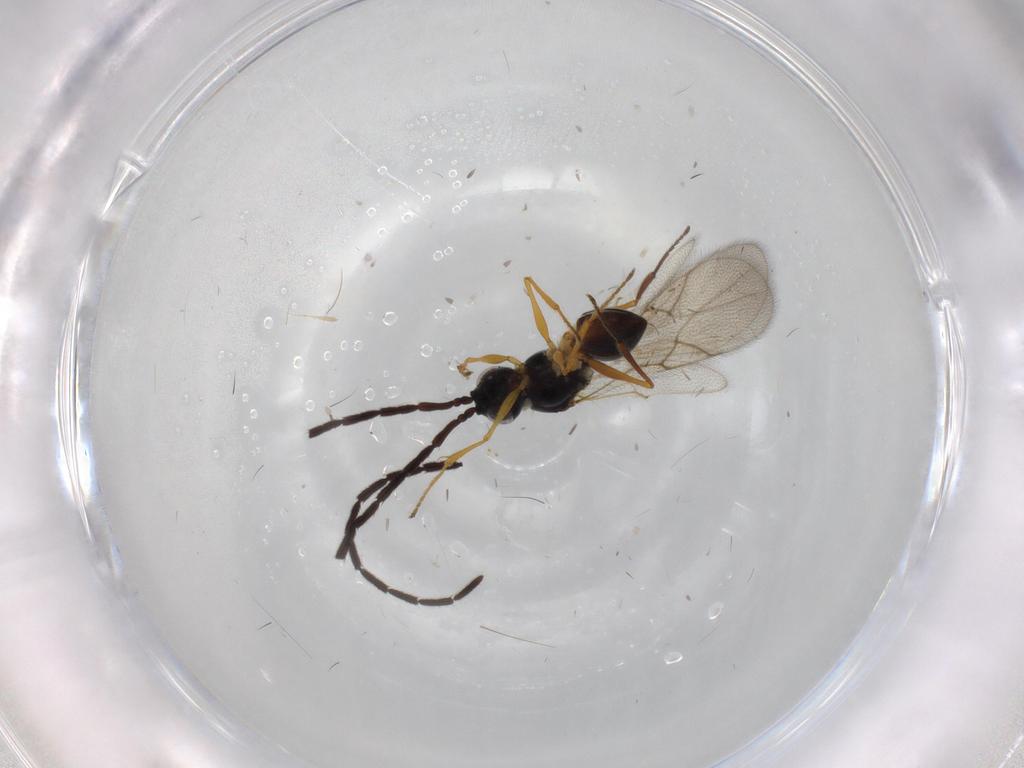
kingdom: Animalia
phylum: Arthropoda
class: Insecta
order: Hymenoptera
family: Figitidae
